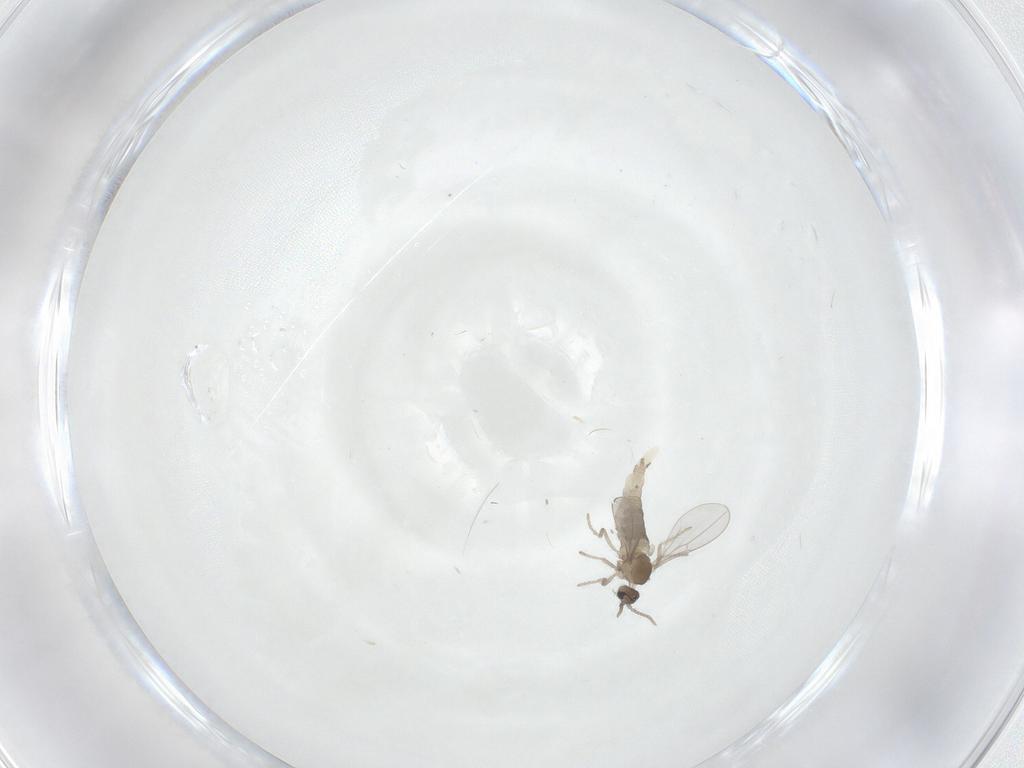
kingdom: Animalia
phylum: Arthropoda
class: Insecta
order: Diptera
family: Cecidomyiidae
